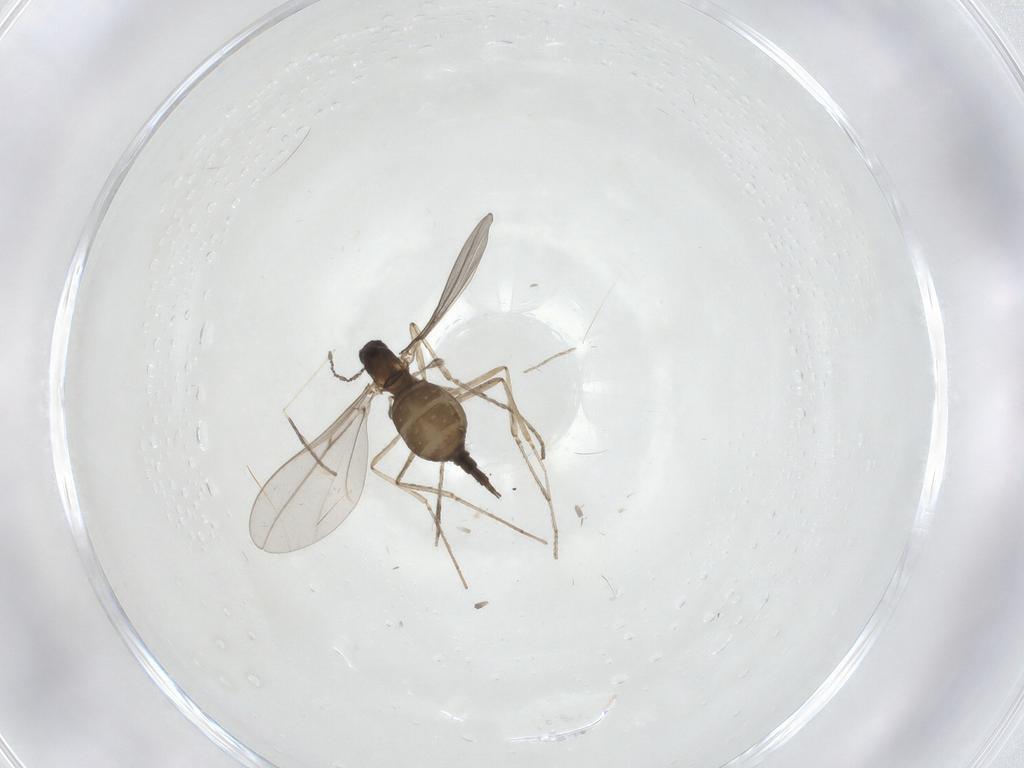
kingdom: Animalia
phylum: Arthropoda
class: Insecta
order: Diptera
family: Cecidomyiidae
